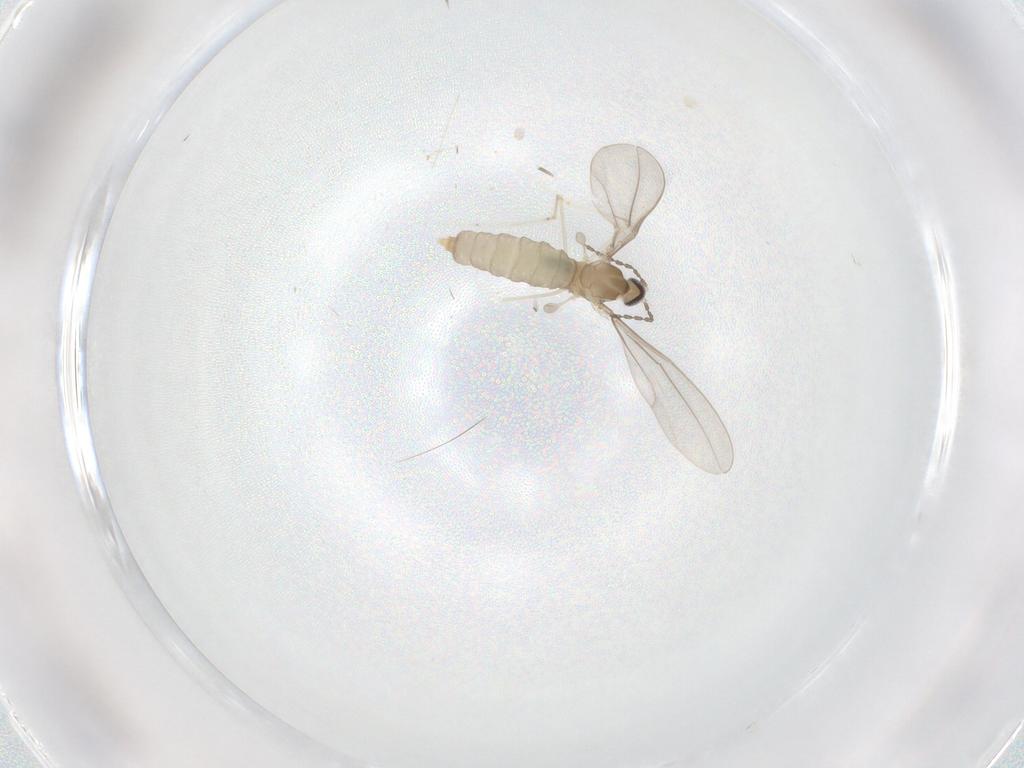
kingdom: Animalia
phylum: Arthropoda
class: Insecta
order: Diptera
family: Cecidomyiidae
